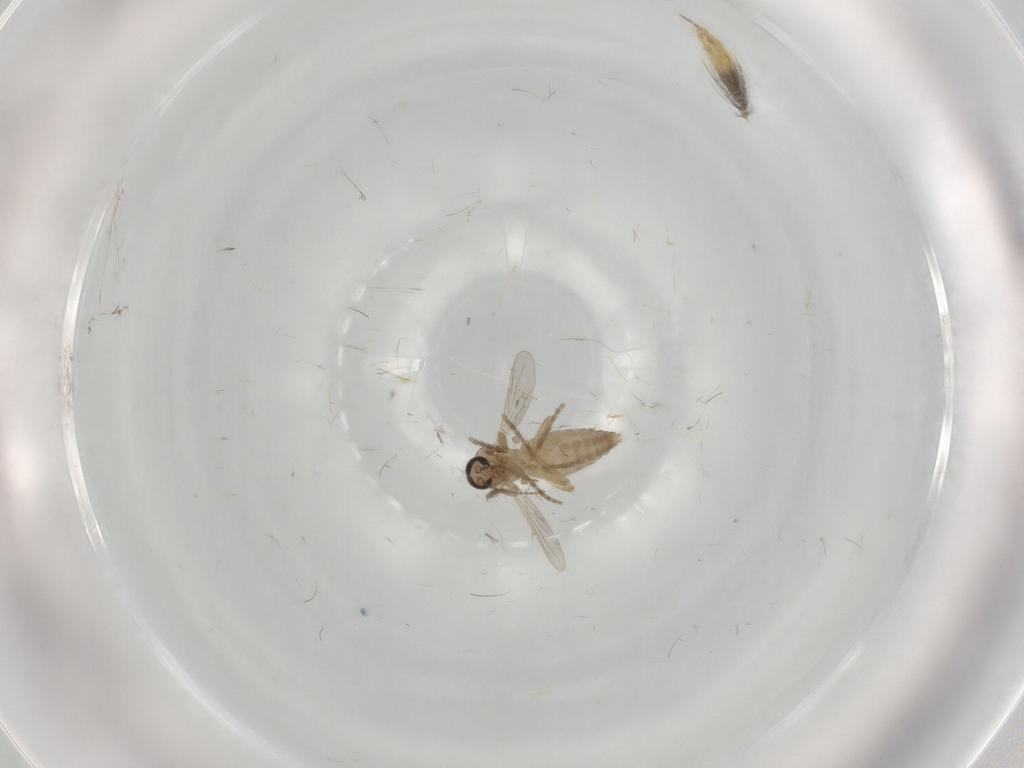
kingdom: Animalia
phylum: Arthropoda
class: Insecta
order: Diptera
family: Ceratopogonidae
